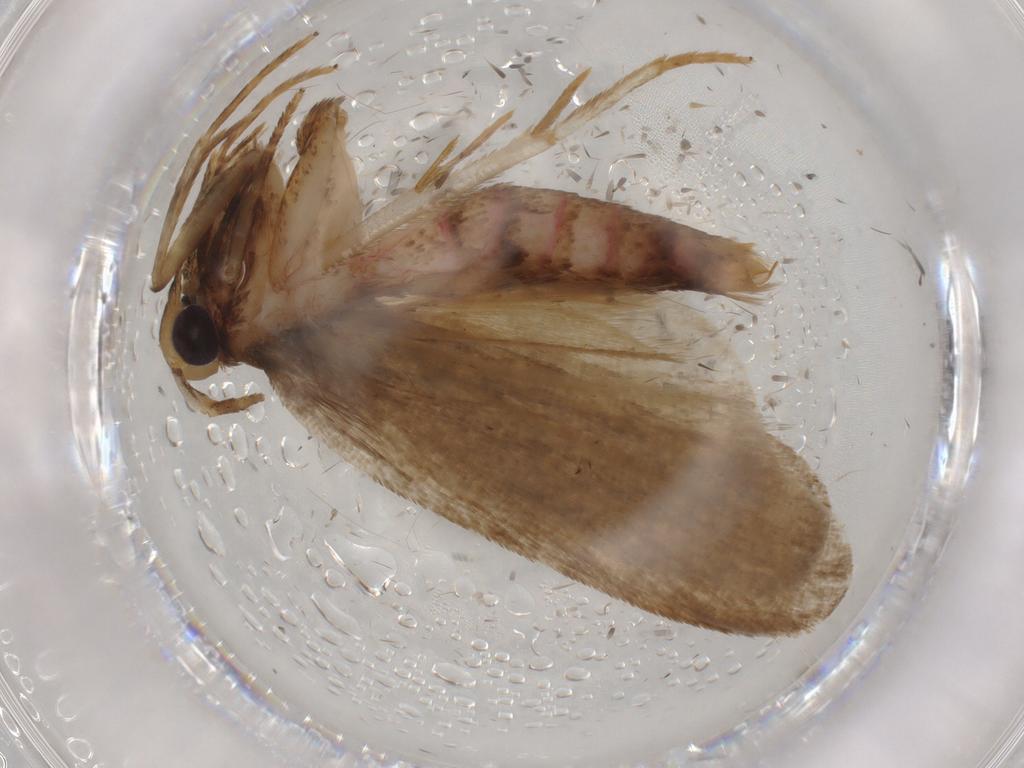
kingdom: Animalia
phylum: Arthropoda
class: Insecta
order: Lepidoptera
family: Autostichidae
